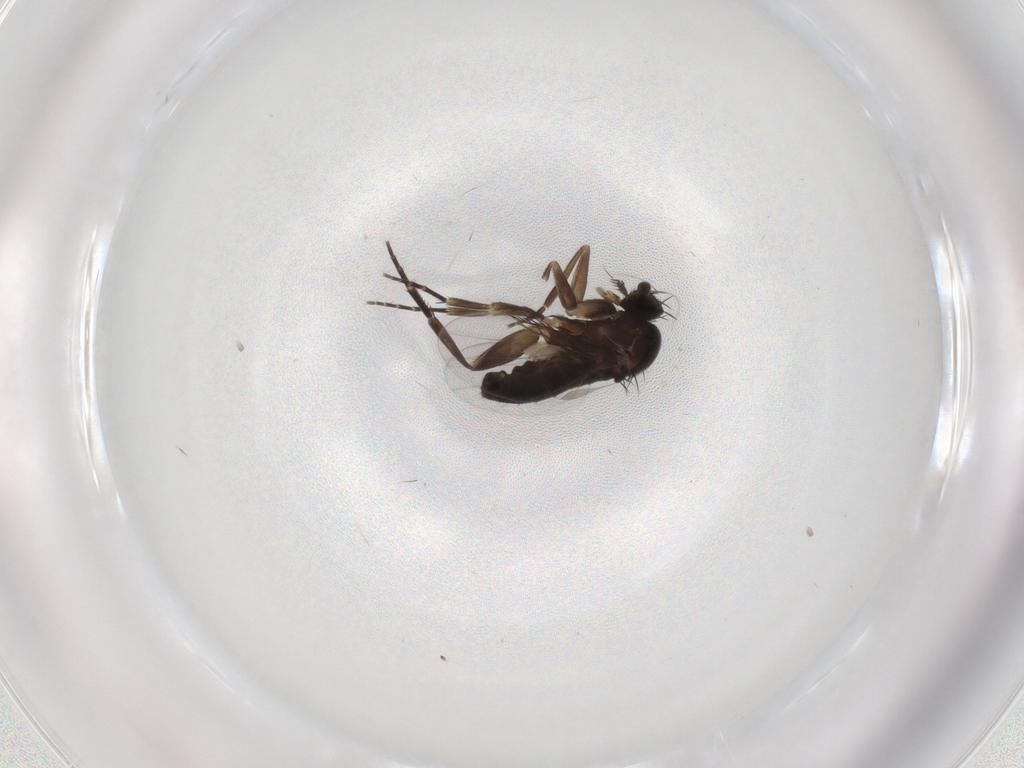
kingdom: Animalia
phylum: Arthropoda
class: Insecta
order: Diptera
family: Phoridae
